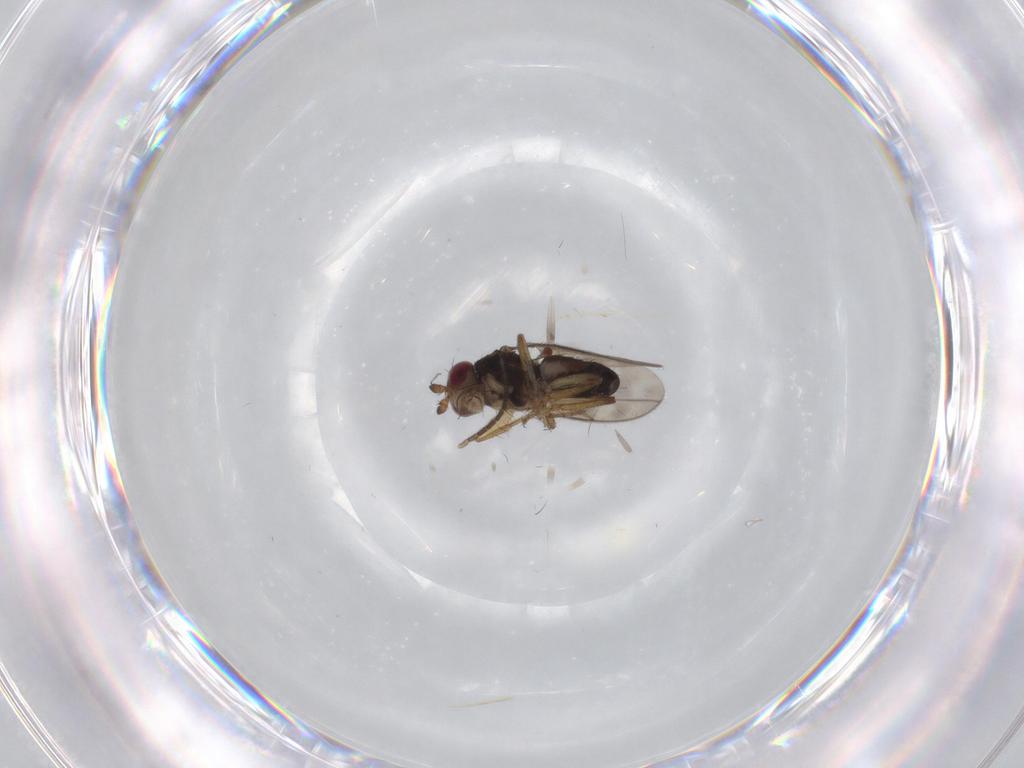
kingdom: Animalia
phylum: Arthropoda
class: Insecta
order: Diptera
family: Sphaeroceridae
